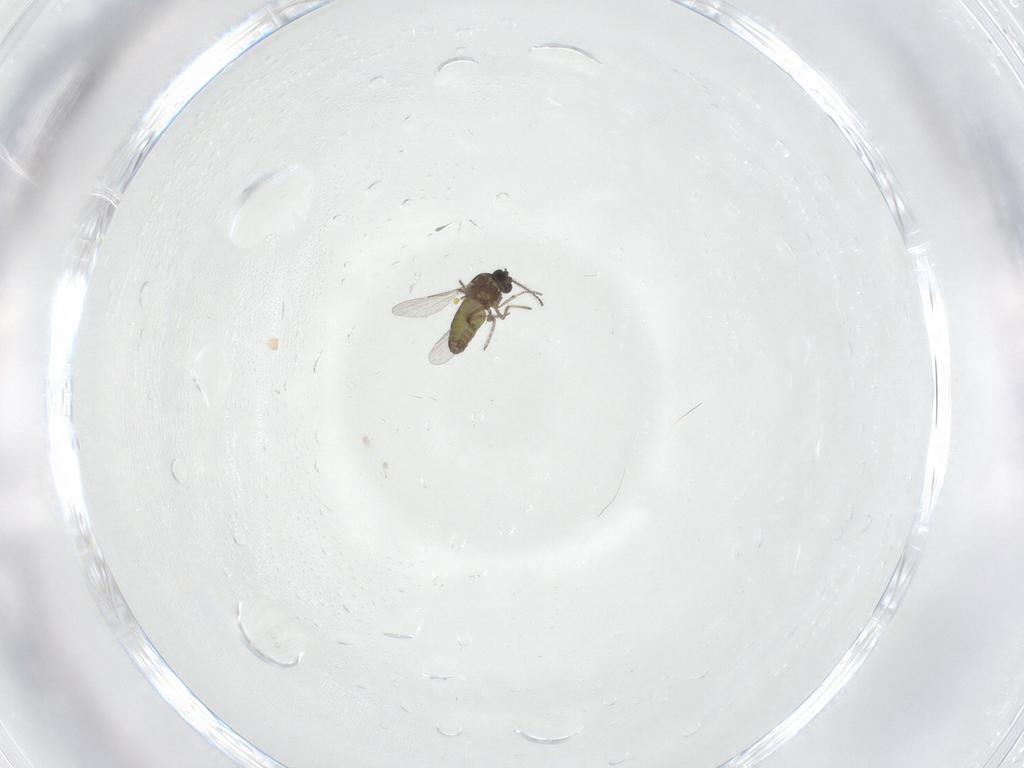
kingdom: Animalia
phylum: Arthropoda
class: Insecta
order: Diptera
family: Ceratopogonidae
